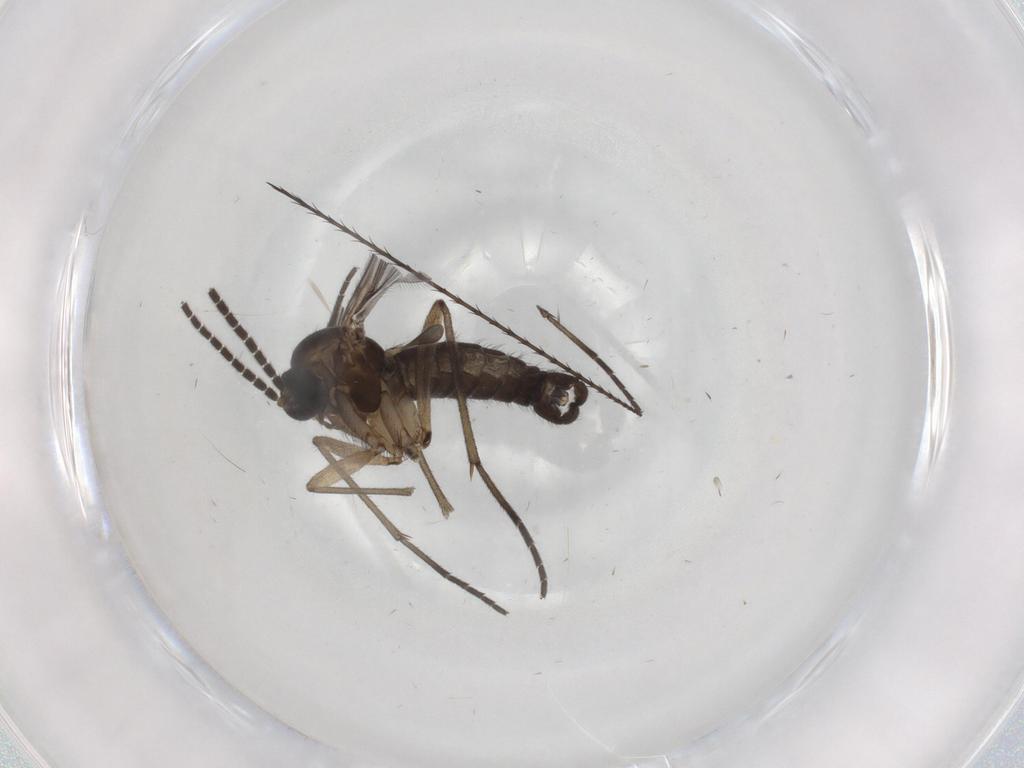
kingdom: Animalia
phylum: Arthropoda
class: Insecta
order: Diptera
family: Sciaridae
